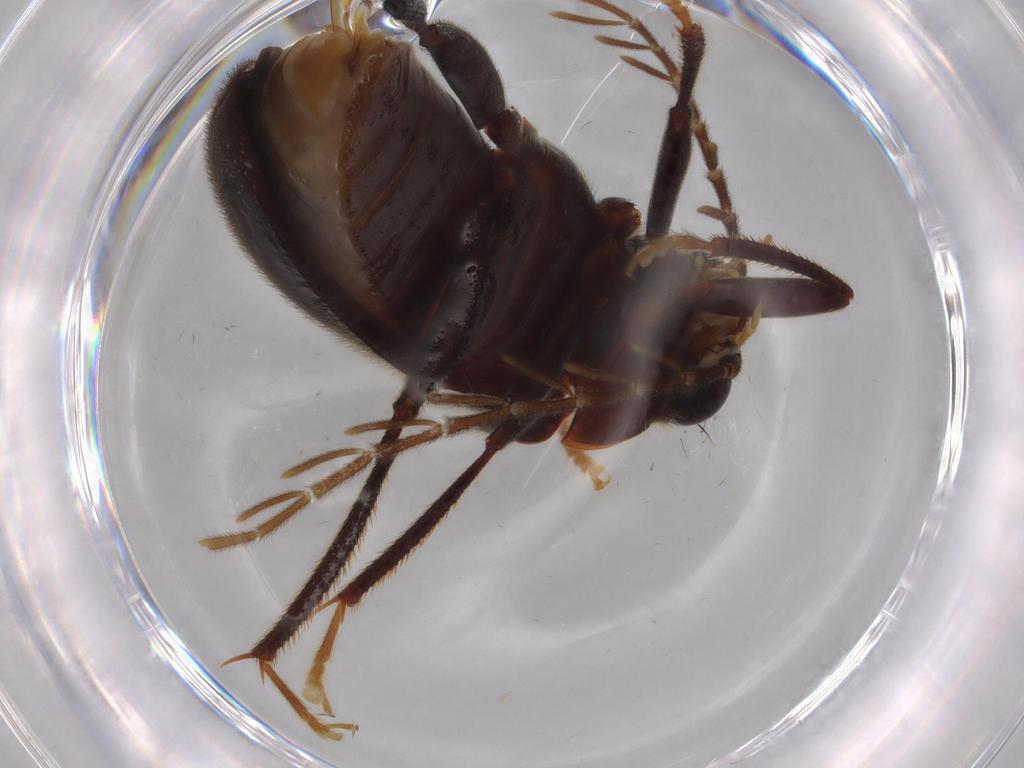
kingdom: Animalia
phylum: Arthropoda
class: Insecta
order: Coleoptera
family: Ptilodactylidae
